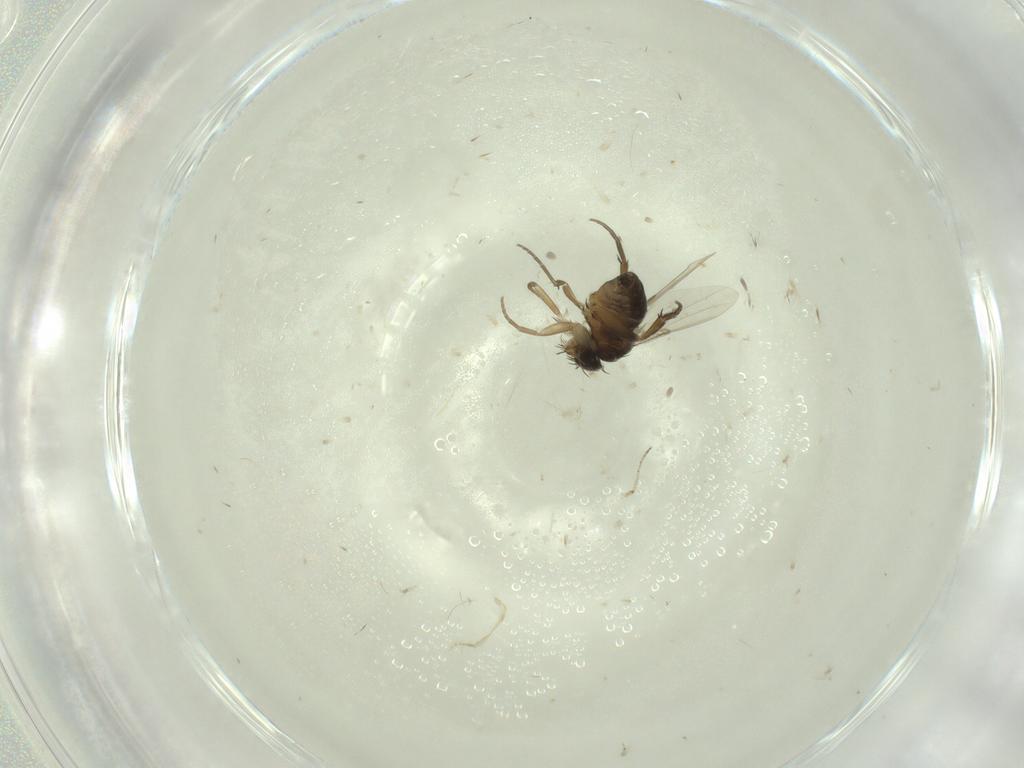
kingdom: Animalia
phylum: Arthropoda
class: Insecta
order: Diptera
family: Phoridae
